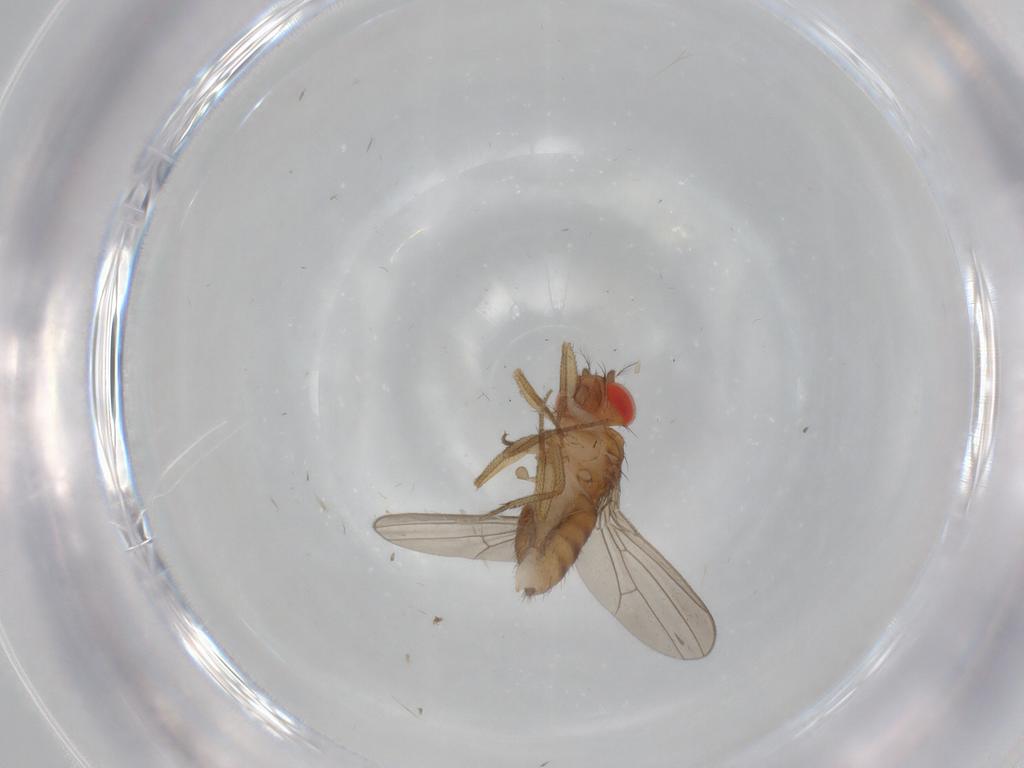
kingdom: Animalia
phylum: Arthropoda
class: Insecta
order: Diptera
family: Drosophilidae
